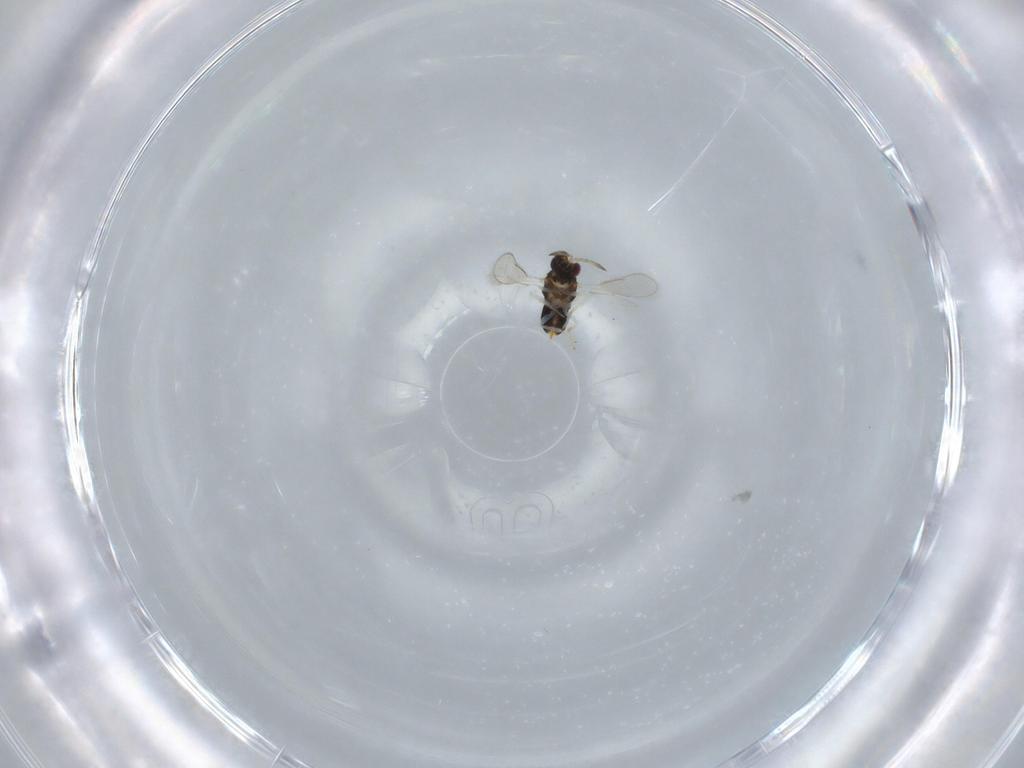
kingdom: Animalia
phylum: Arthropoda
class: Insecta
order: Hymenoptera
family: Aphelinidae
